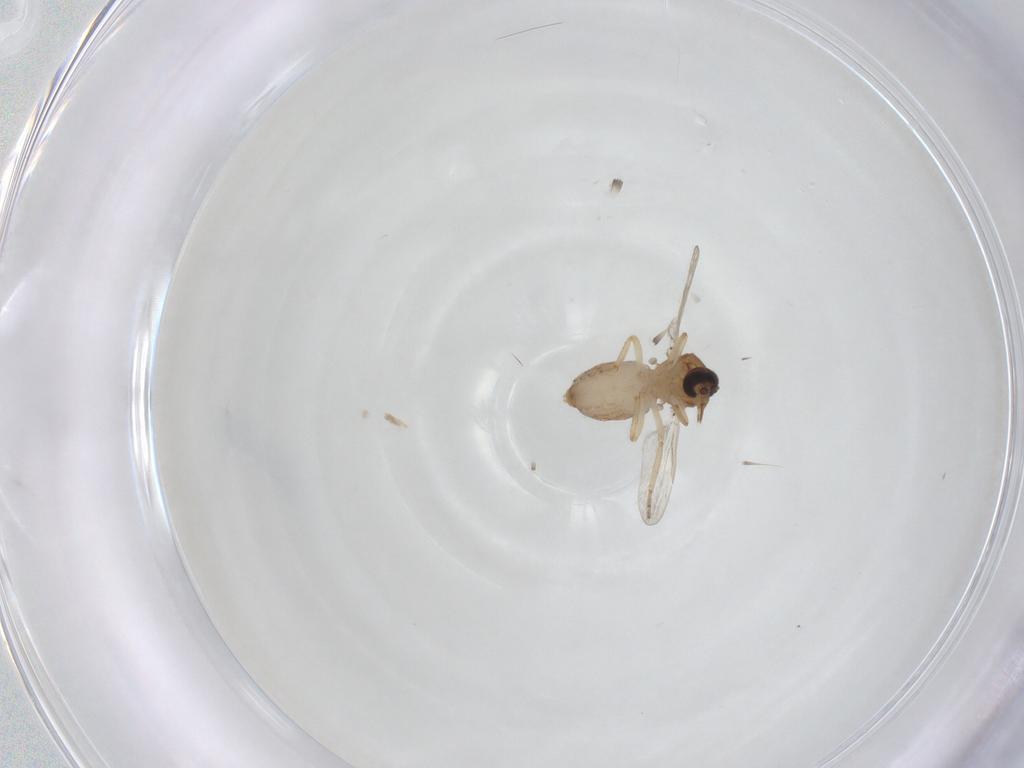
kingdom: Animalia
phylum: Arthropoda
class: Insecta
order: Diptera
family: Ceratopogonidae
